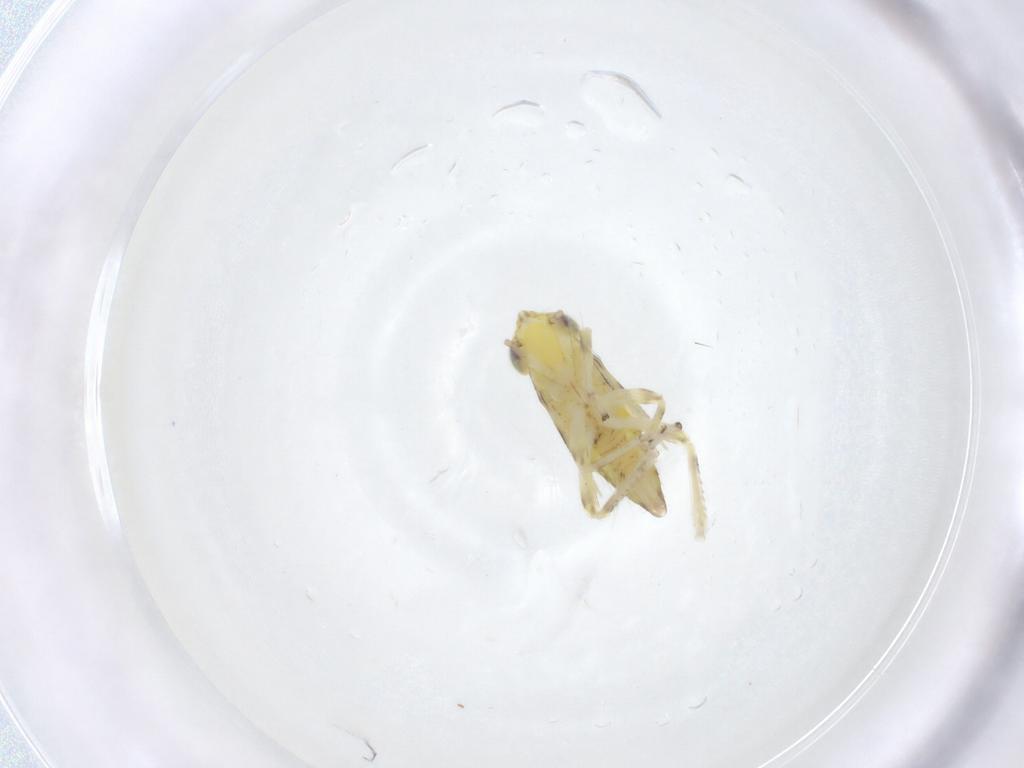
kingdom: Animalia
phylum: Arthropoda
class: Insecta
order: Hemiptera
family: Cicadellidae
